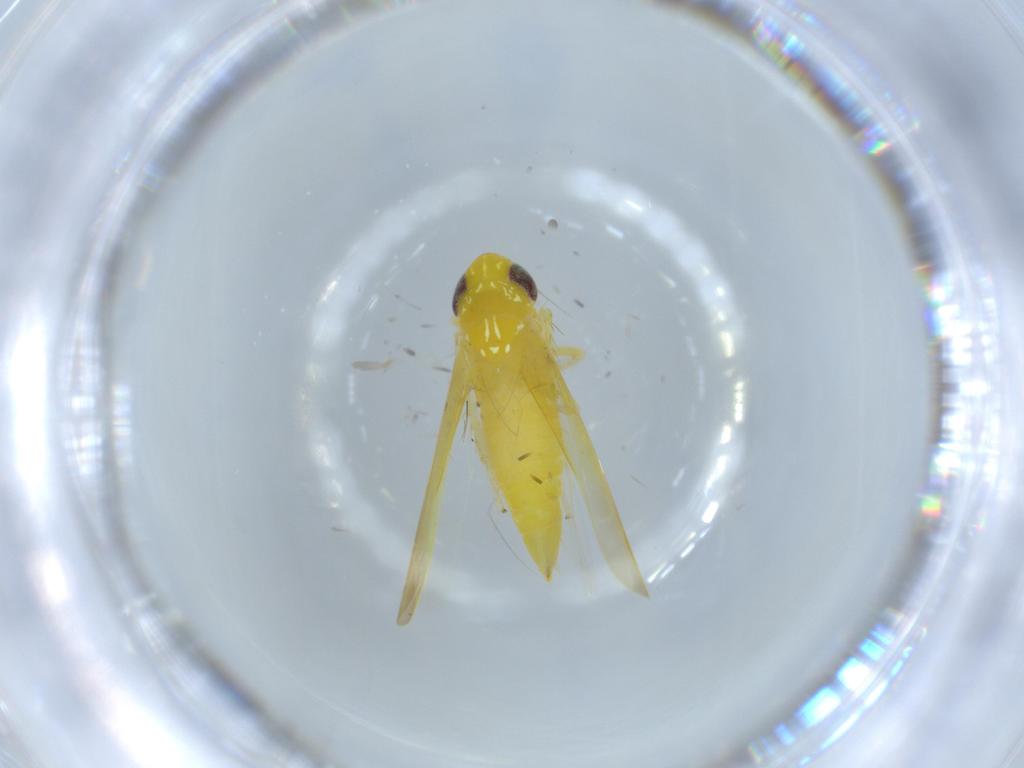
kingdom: Animalia
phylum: Arthropoda
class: Insecta
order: Hemiptera
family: Cicadellidae
